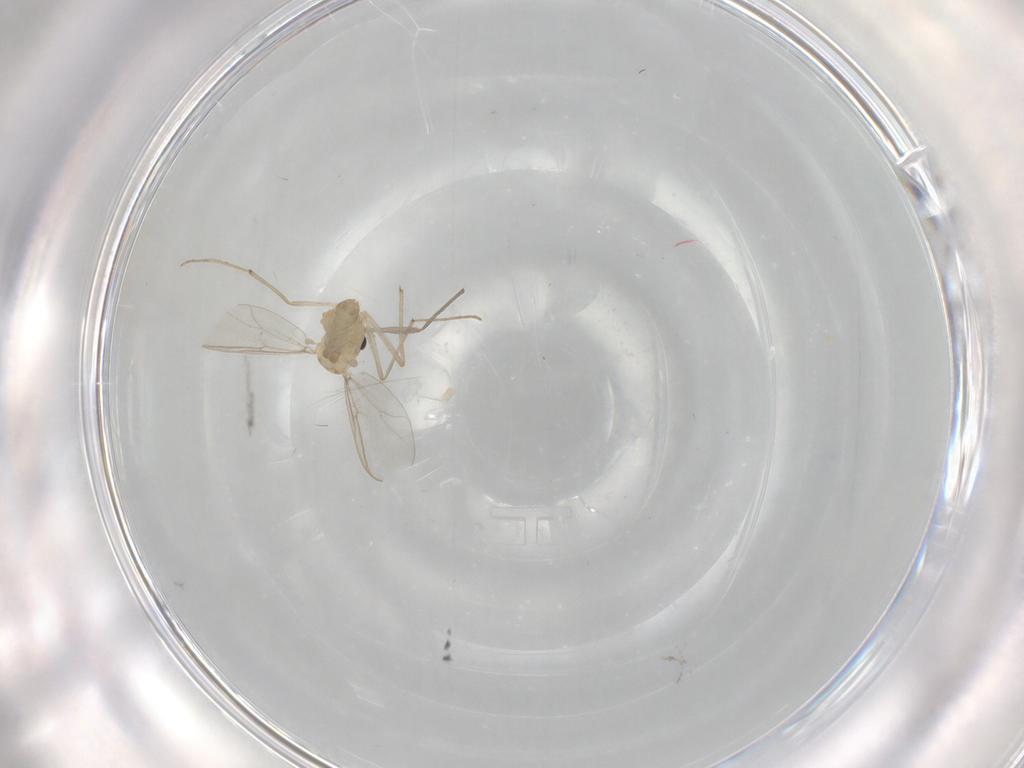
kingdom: Animalia
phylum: Arthropoda
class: Insecta
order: Diptera
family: Chironomidae
